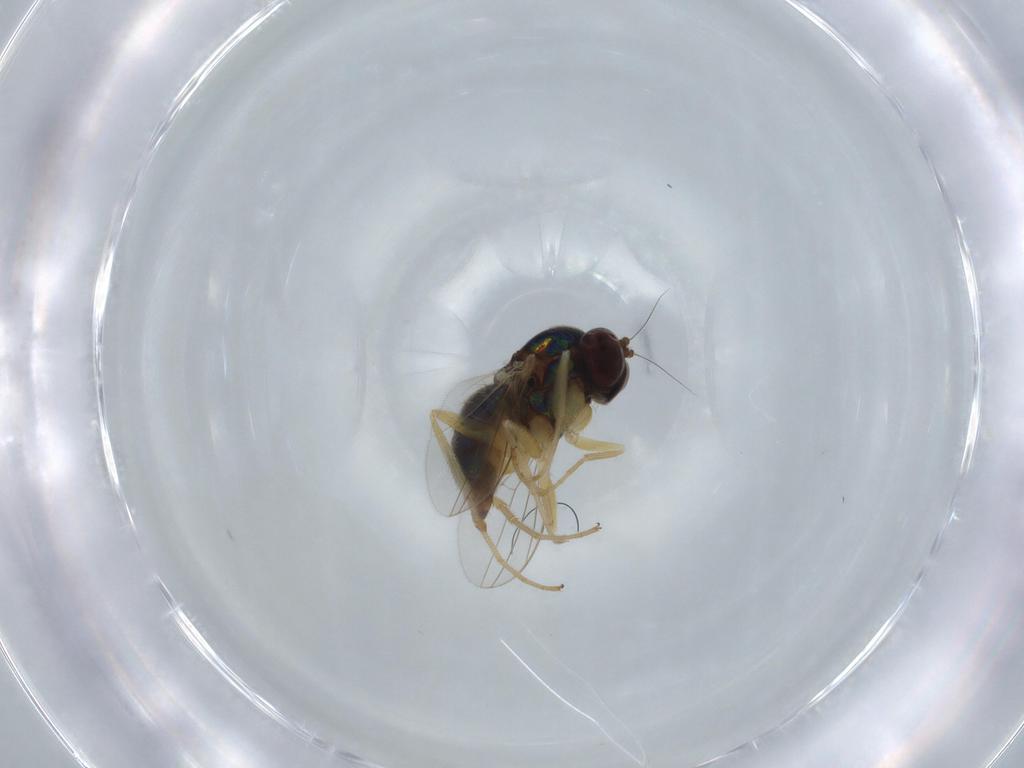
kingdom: Animalia
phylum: Arthropoda
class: Insecta
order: Diptera
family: Dolichopodidae
